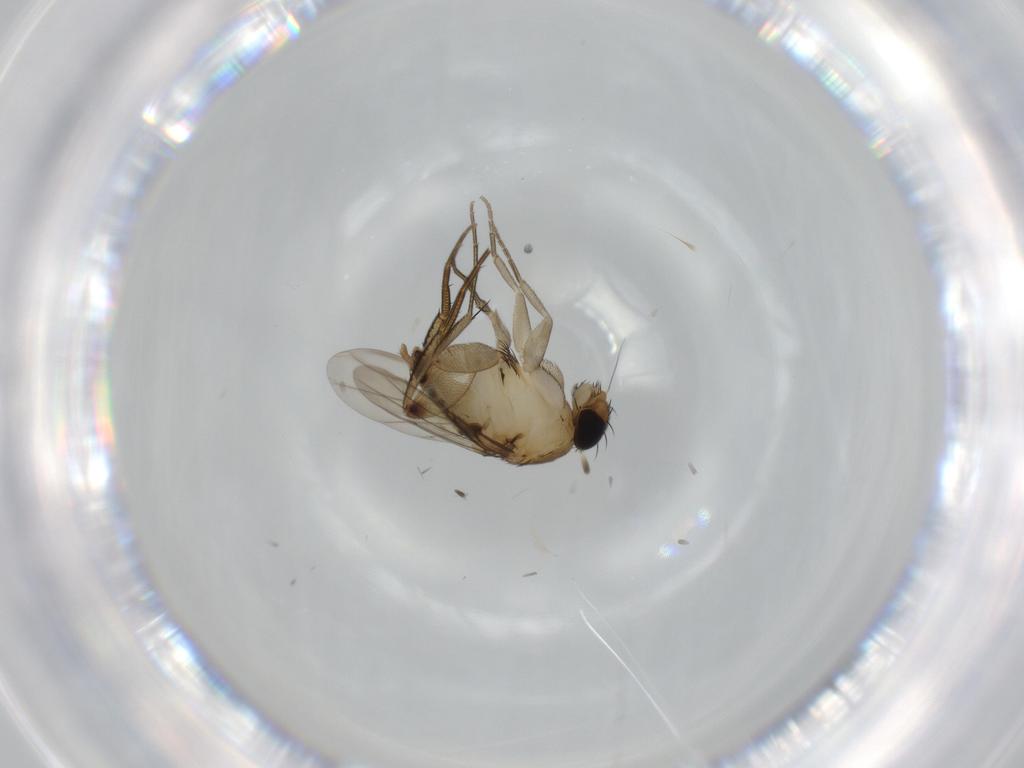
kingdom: Animalia
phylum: Arthropoda
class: Insecta
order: Diptera
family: Phoridae
